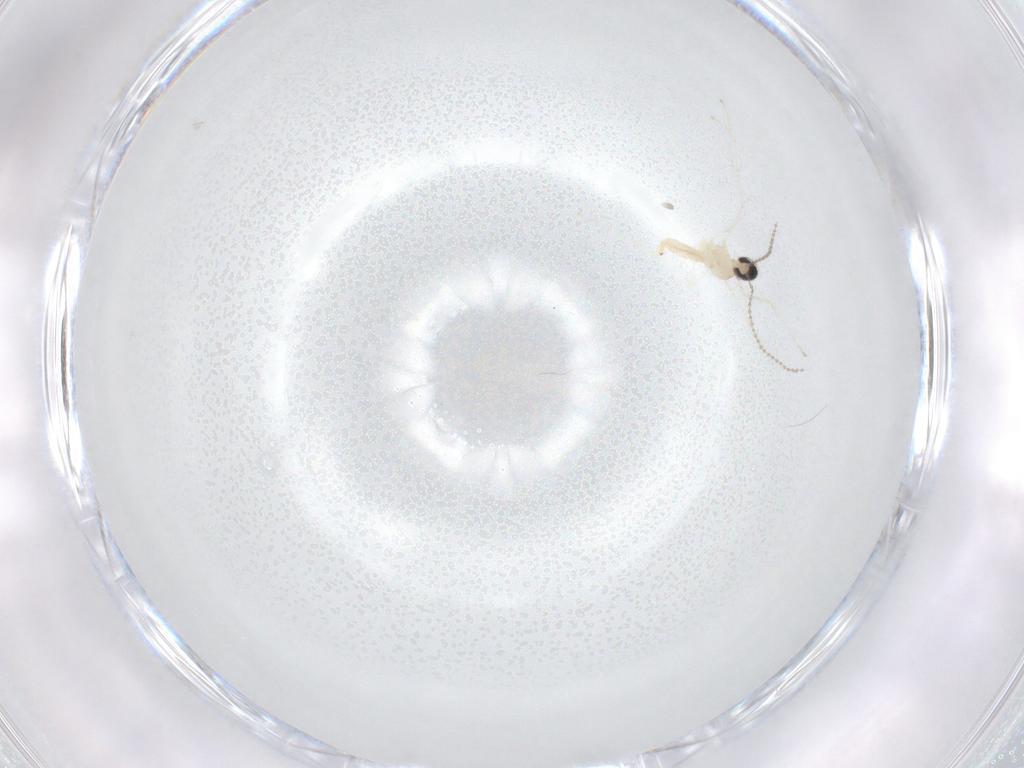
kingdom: Animalia
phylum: Arthropoda
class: Insecta
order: Diptera
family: Cecidomyiidae
